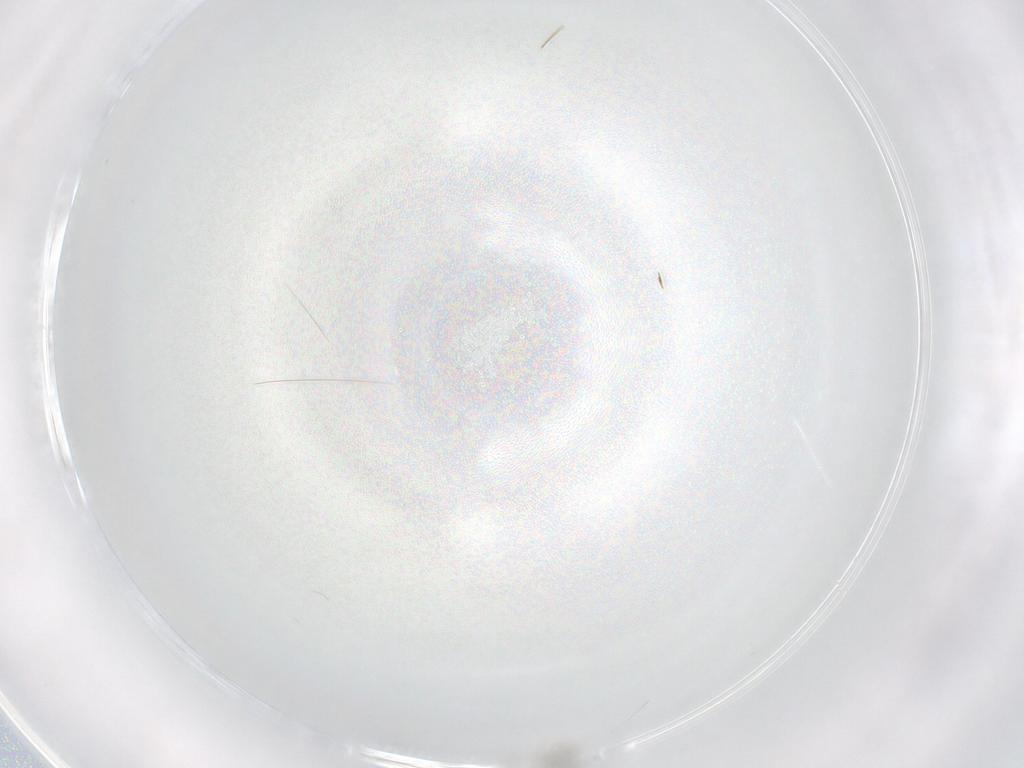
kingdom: Animalia
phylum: Arthropoda
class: Insecta
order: Diptera
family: Sciaridae
